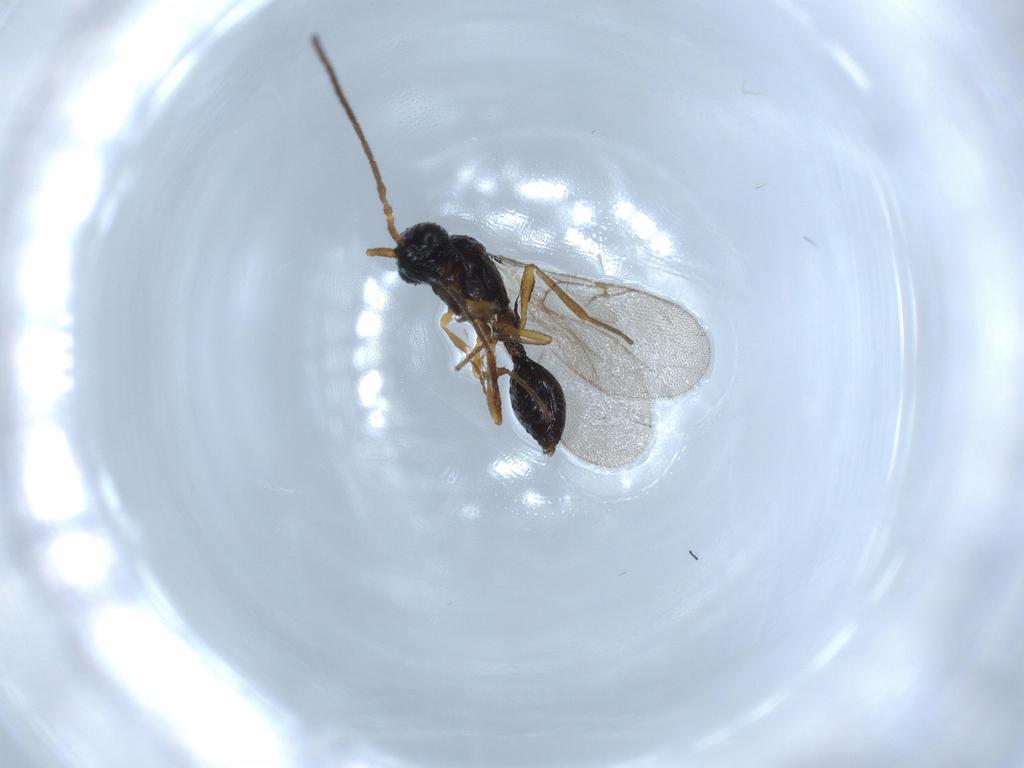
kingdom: Animalia
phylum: Arthropoda
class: Insecta
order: Hymenoptera
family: Diapriidae
